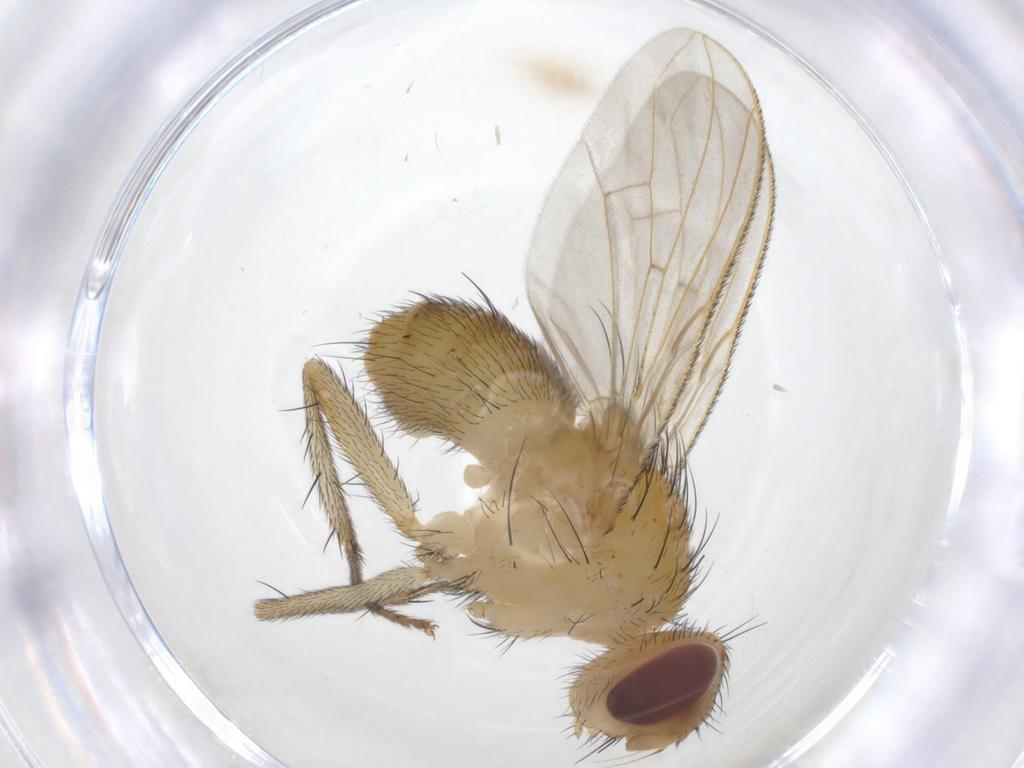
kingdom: Animalia
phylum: Arthropoda
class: Insecta
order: Diptera
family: Tachinidae
